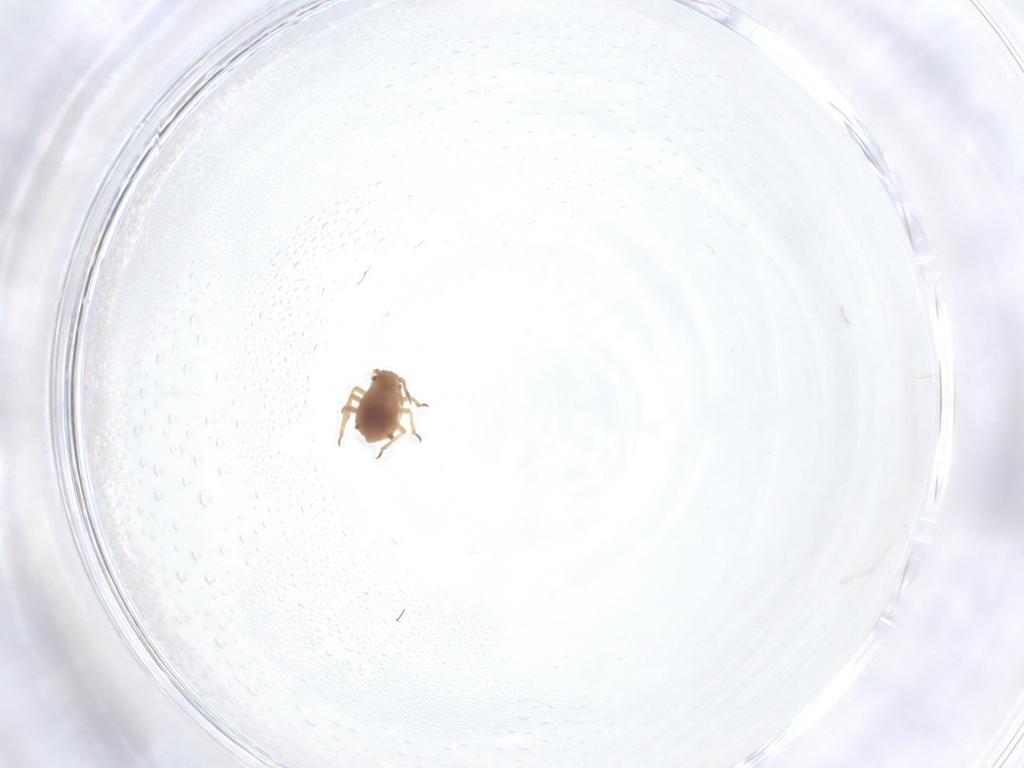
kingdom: Animalia
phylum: Arthropoda
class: Insecta
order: Hemiptera
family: Aphididae
